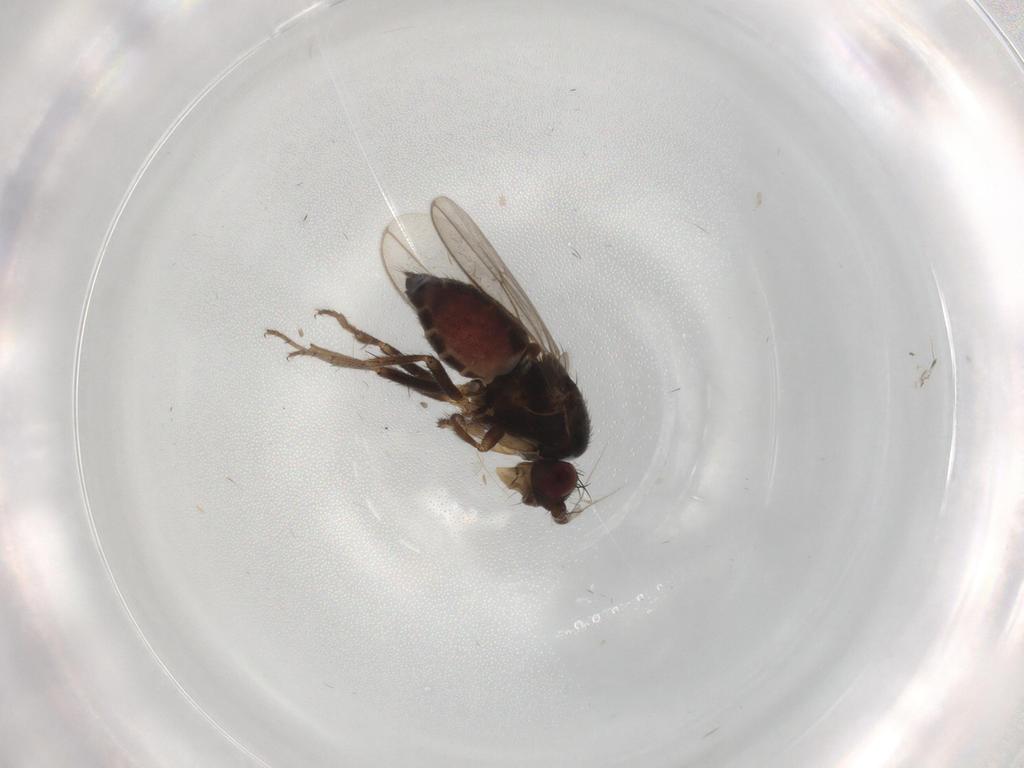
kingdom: Animalia
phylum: Arthropoda
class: Insecta
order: Diptera
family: Sphaeroceridae
